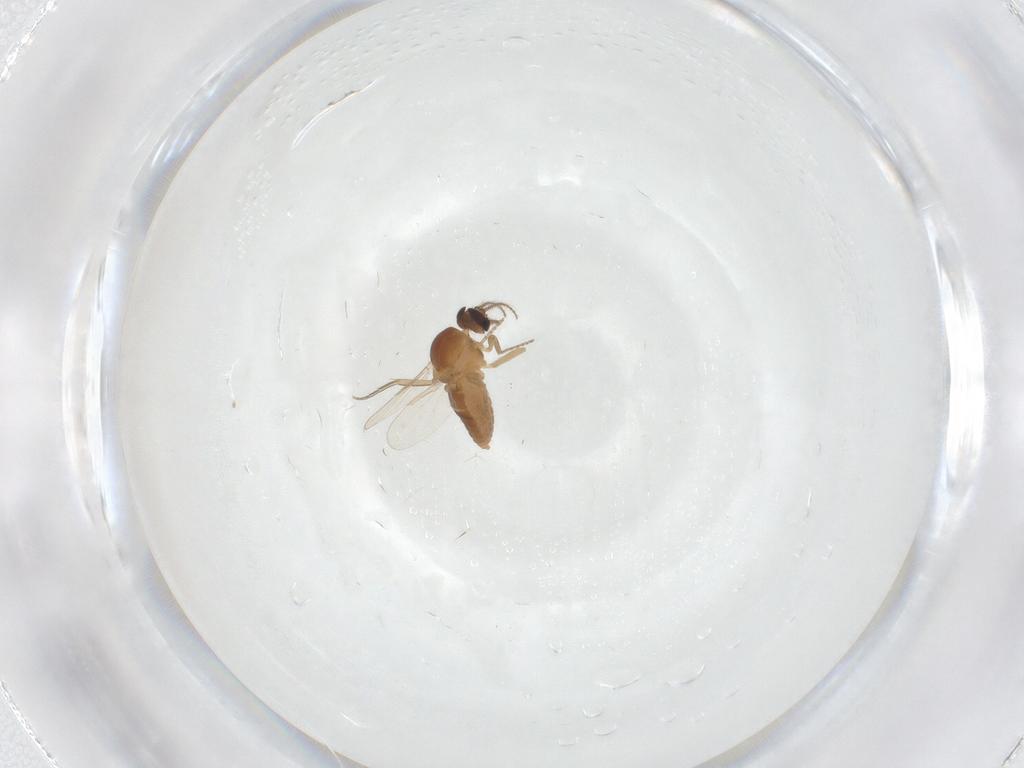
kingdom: Animalia
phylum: Arthropoda
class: Insecta
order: Diptera
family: Ceratopogonidae
